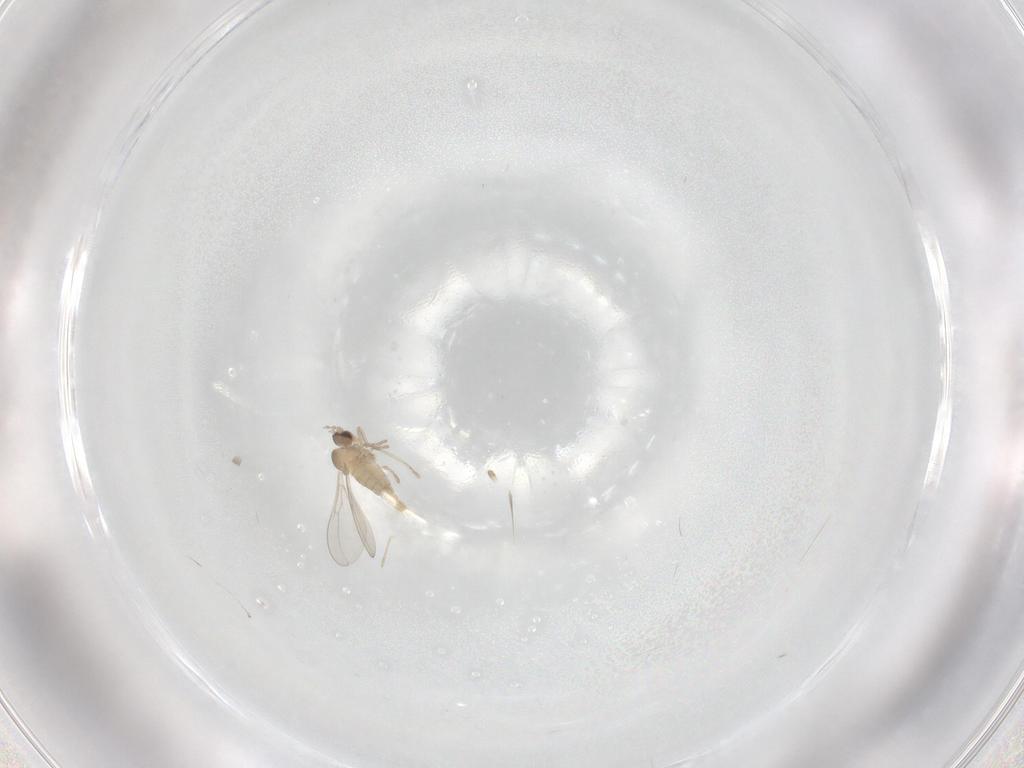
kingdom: Animalia
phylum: Arthropoda
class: Insecta
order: Diptera
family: Cecidomyiidae
